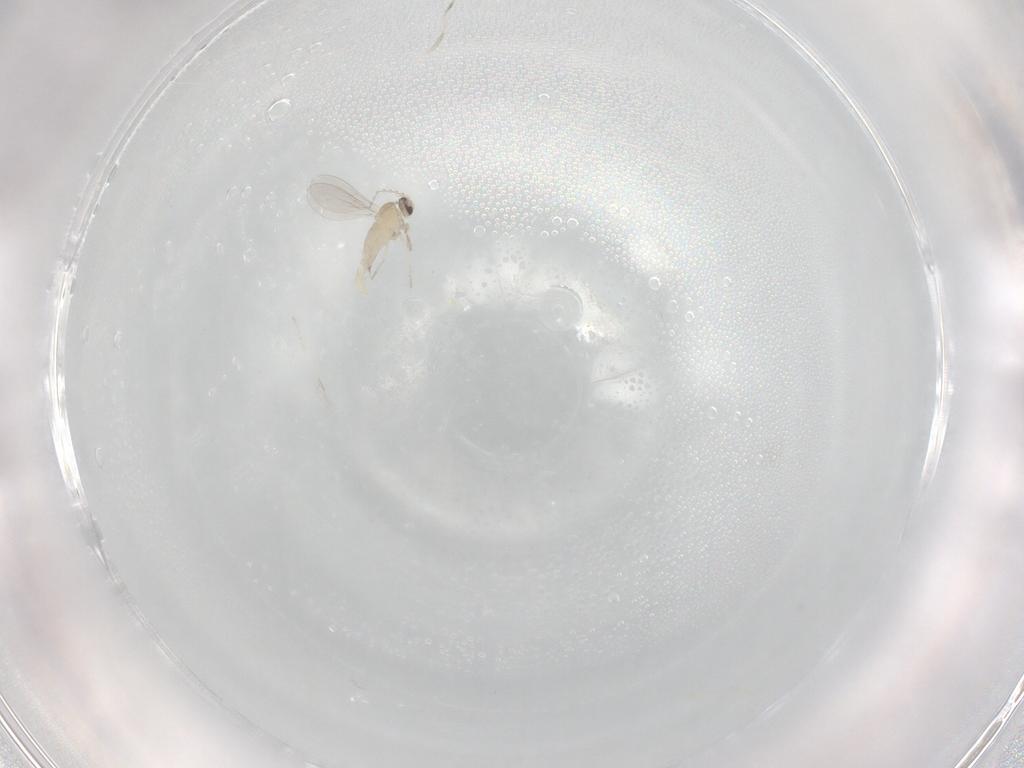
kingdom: Animalia
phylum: Arthropoda
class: Insecta
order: Diptera
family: Cecidomyiidae
